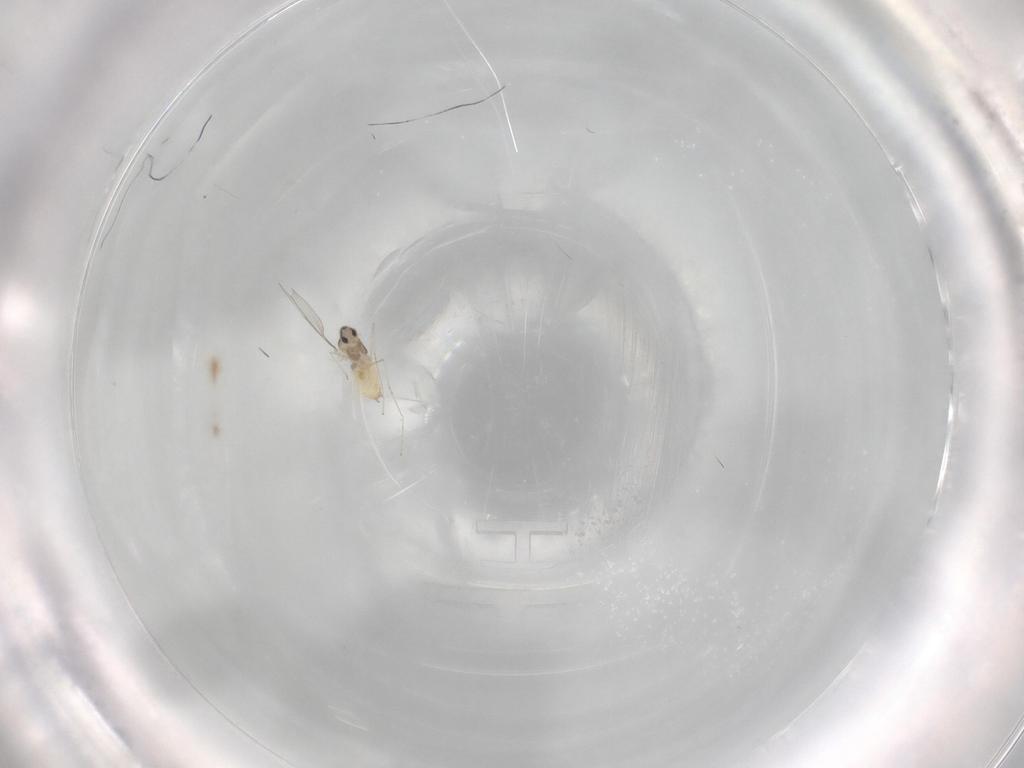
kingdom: Animalia
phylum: Arthropoda
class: Insecta
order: Diptera
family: Cecidomyiidae
